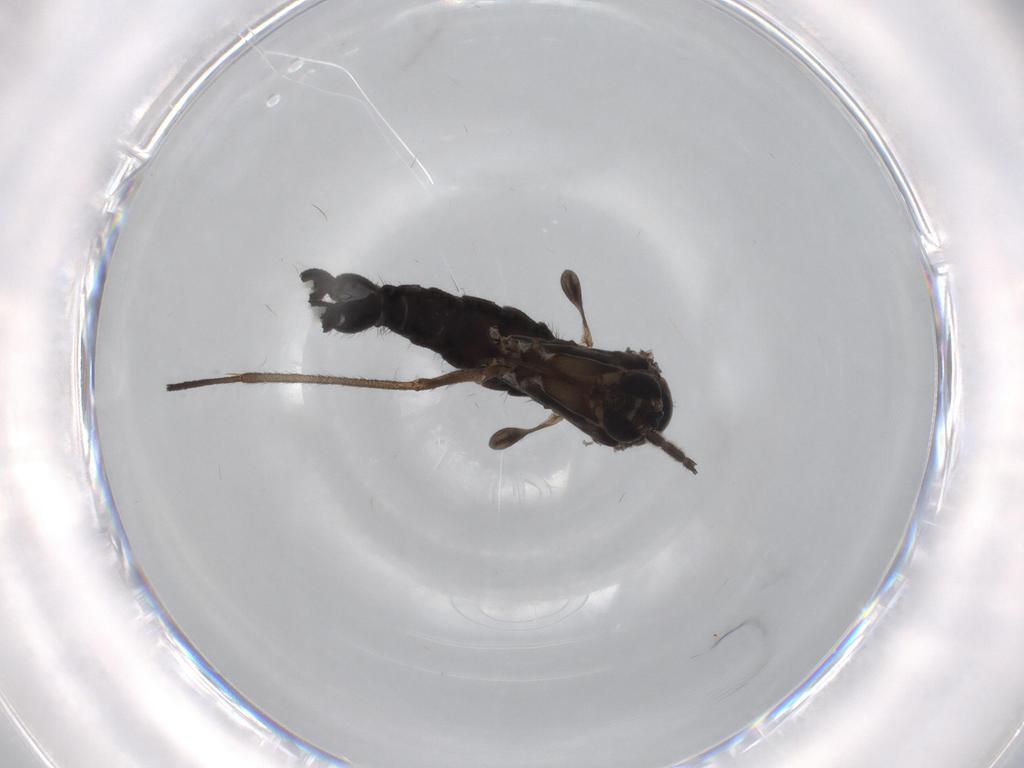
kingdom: Animalia
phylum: Arthropoda
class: Insecta
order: Diptera
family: Sciaridae
